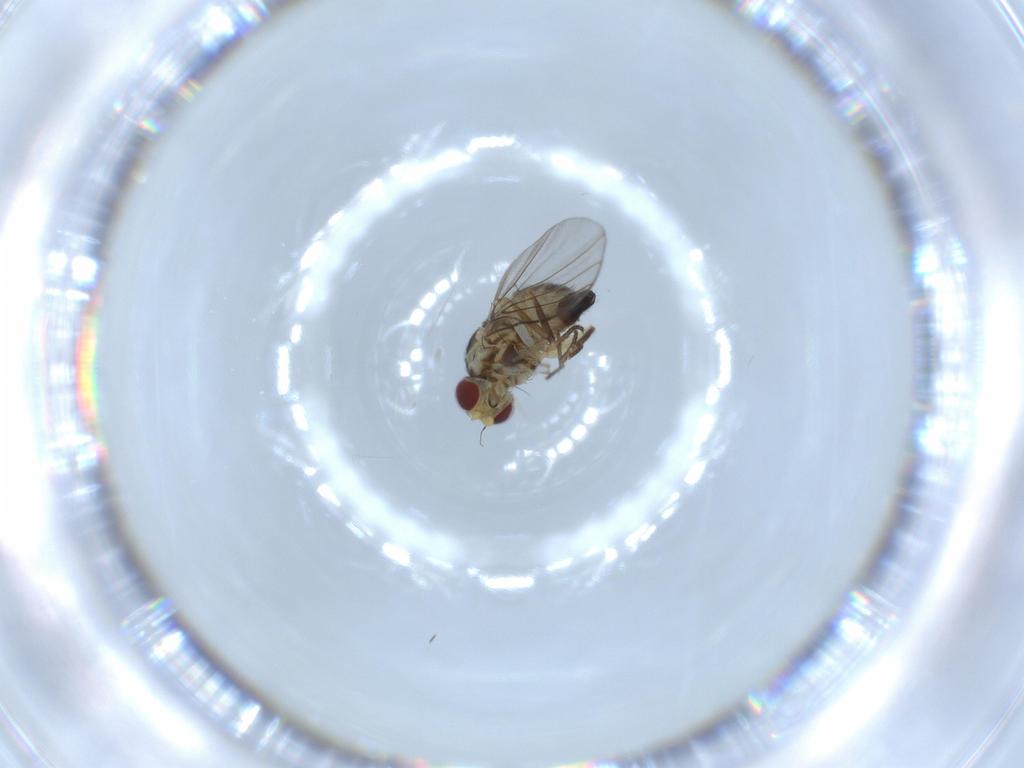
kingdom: Animalia
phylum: Arthropoda
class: Insecta
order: Diptera
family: Agromyzidae
